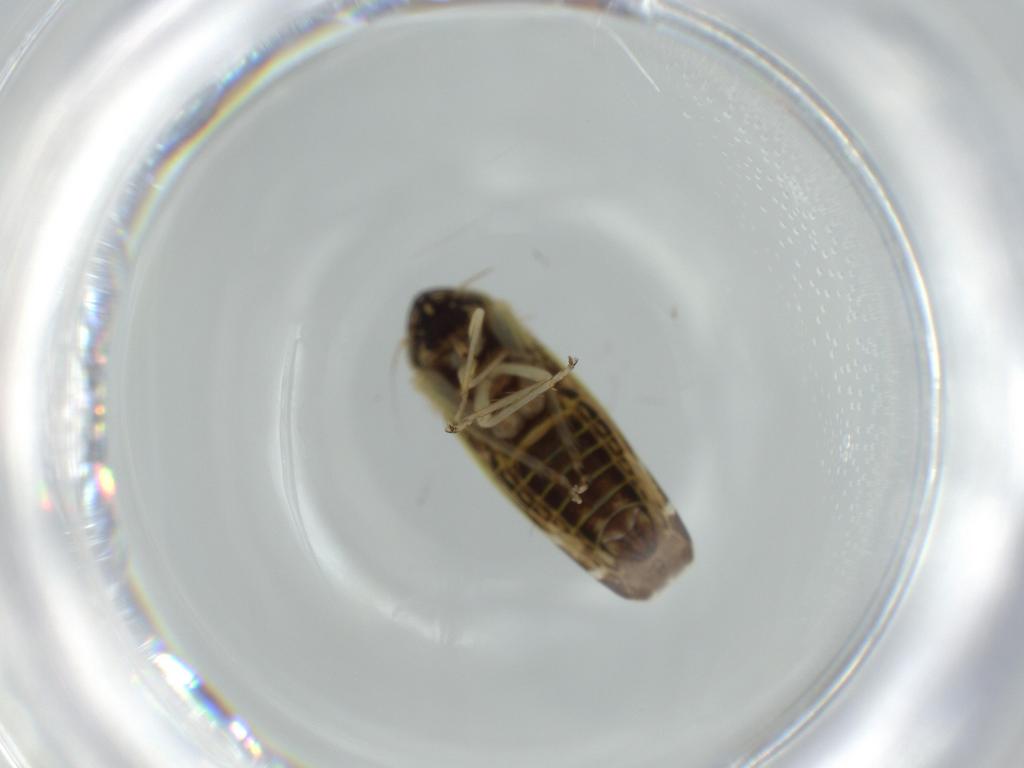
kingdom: Animalia
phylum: Arthropoda
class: Insecta
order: Hemiptera
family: Cicadellidae
